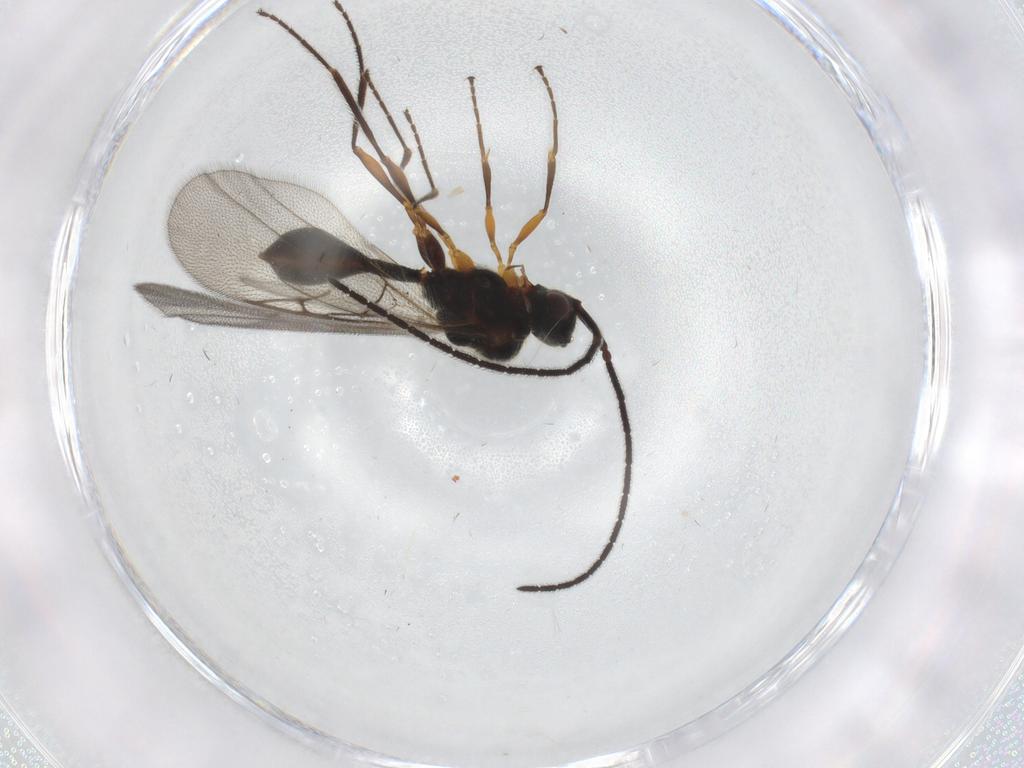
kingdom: Animalia
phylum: Arthropoda
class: Insecta
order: Hymenoptera
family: Diapriidae
